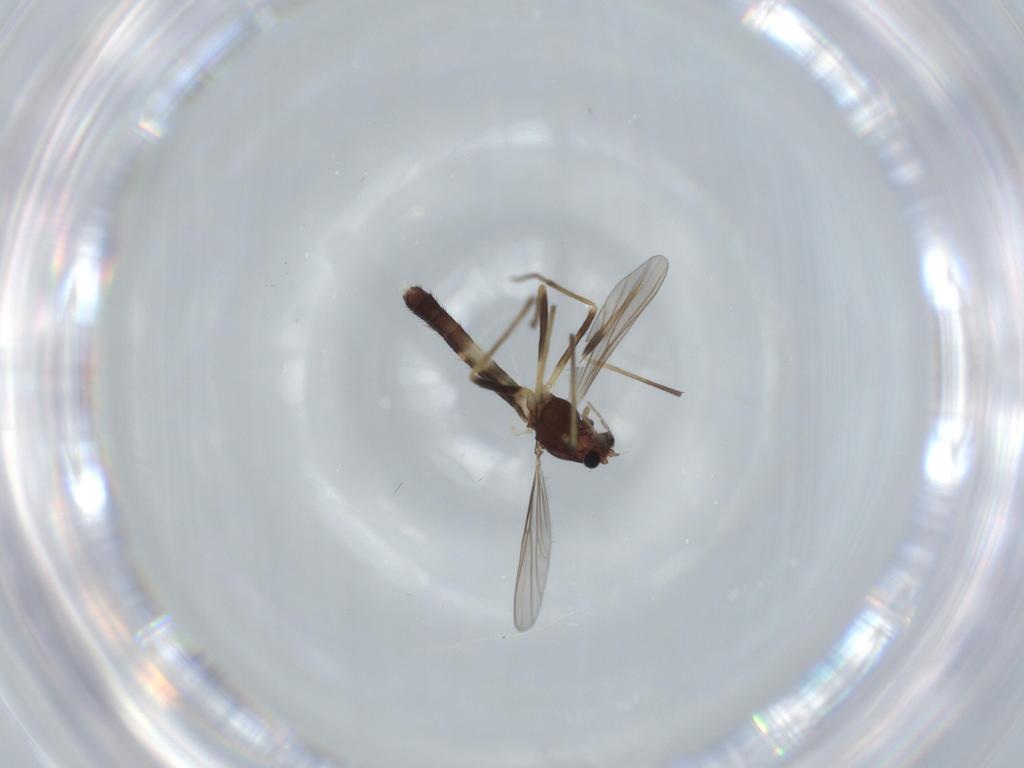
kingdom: Animalia
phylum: Arthropoda
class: Insecta
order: Diptera
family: Chironomidae
